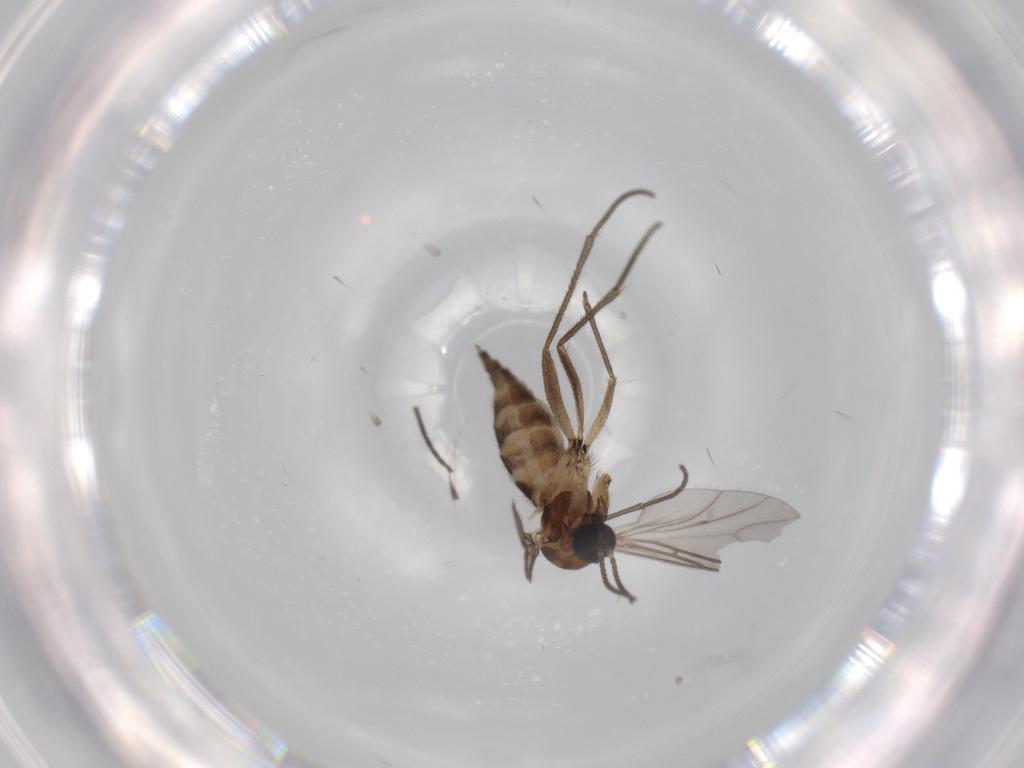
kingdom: Animalia
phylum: Arthropoda
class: Insecta
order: Diptera
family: Sciaridae
